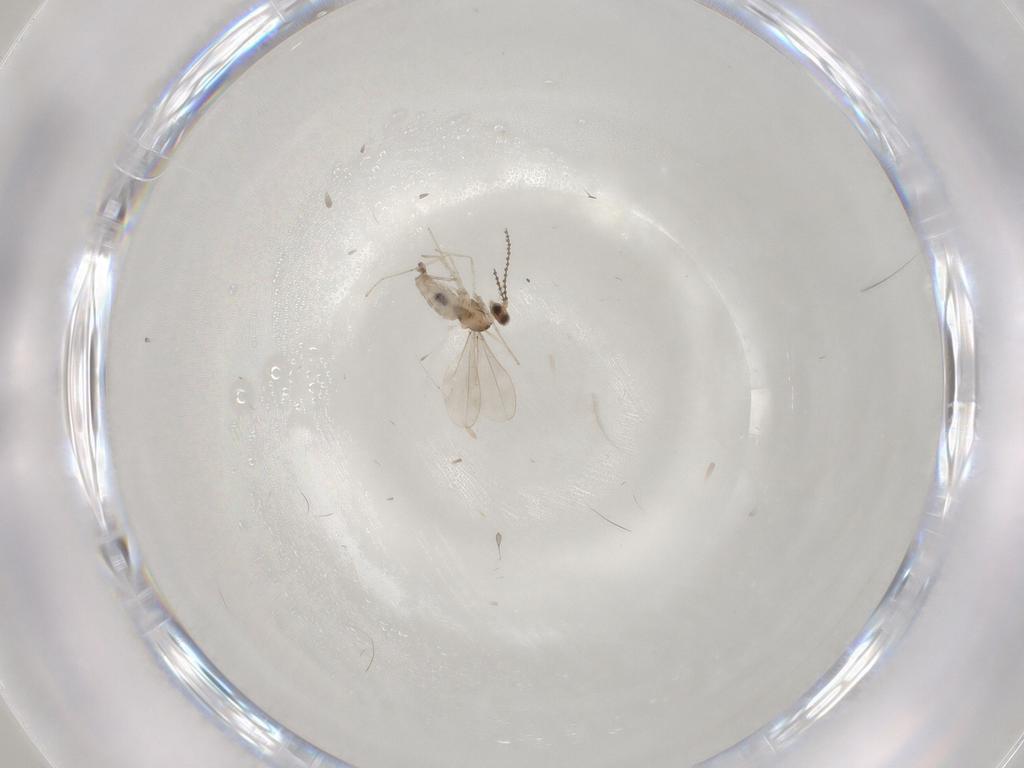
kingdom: Animalia
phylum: Arthropoda
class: Insecta
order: Diptera
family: Cecidomyiidae
